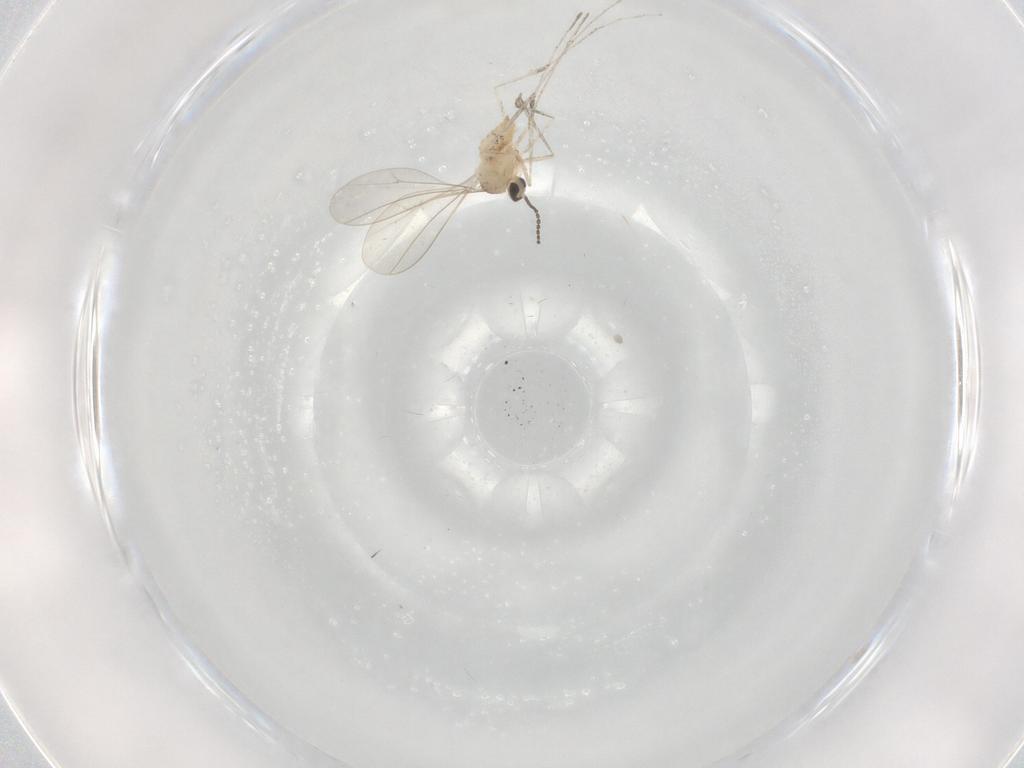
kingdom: Animalia
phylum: Arthropoda
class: Insecta
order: Diptera
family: Cecidomyiidae
